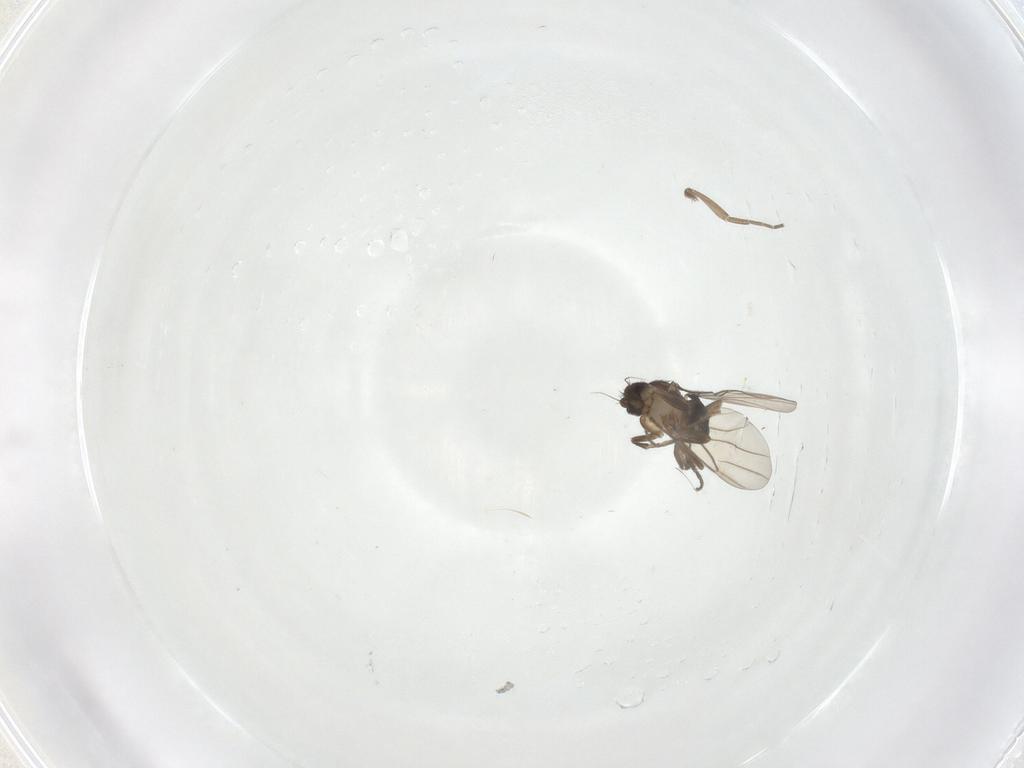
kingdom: Animalia
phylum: Arthropoda
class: Insecta
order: Diptera
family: Phoridae
